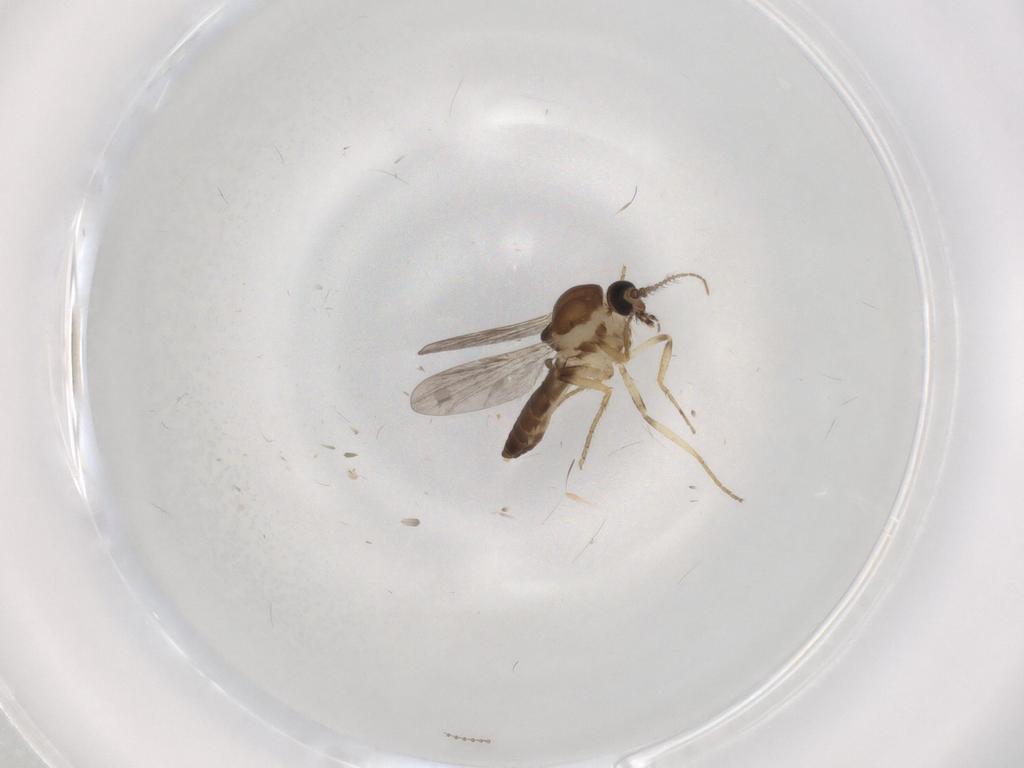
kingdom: Animalia
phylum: Arthropoda
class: Insecta
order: Diptera
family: Ceratopogonidae
